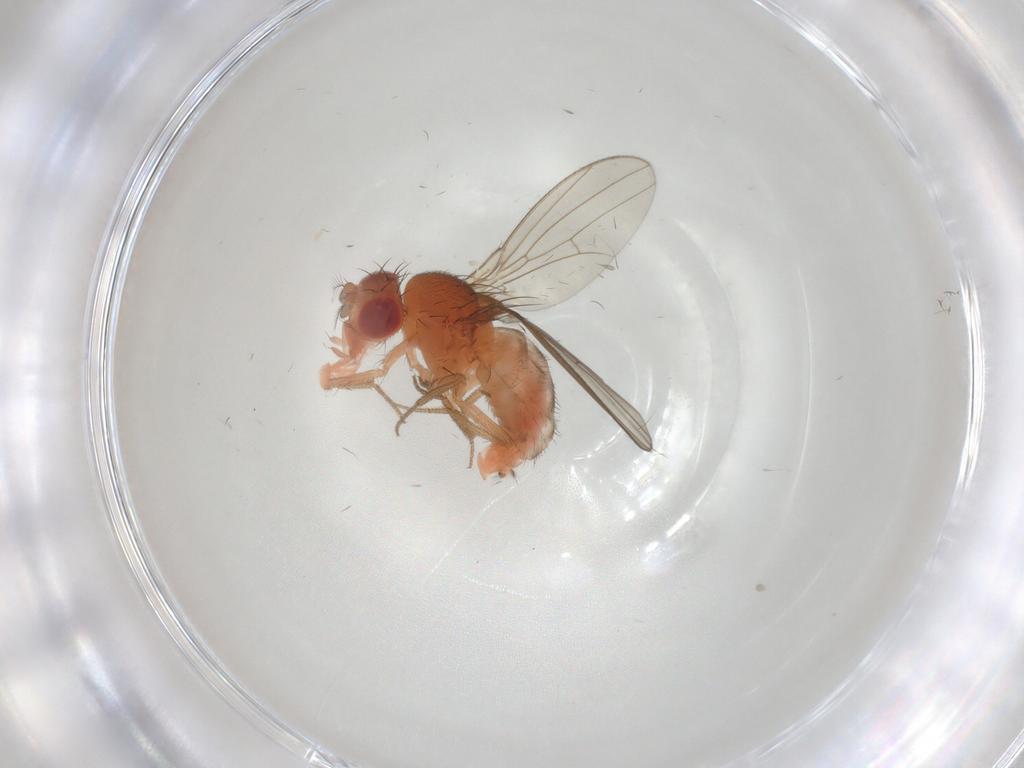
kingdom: Animalia
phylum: Arthropoda
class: Insecta
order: Diptera
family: Drosophilidae
